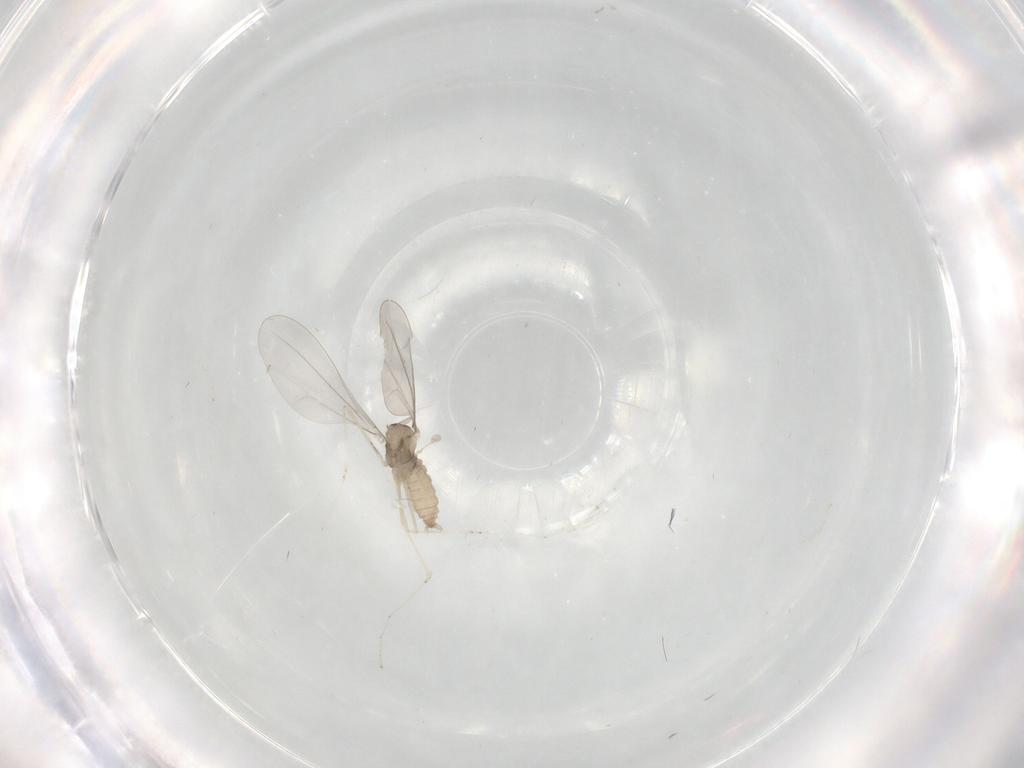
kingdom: Animalia
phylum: Arthropoda
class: Insecta
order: Diptera
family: Cecidomyiidae
